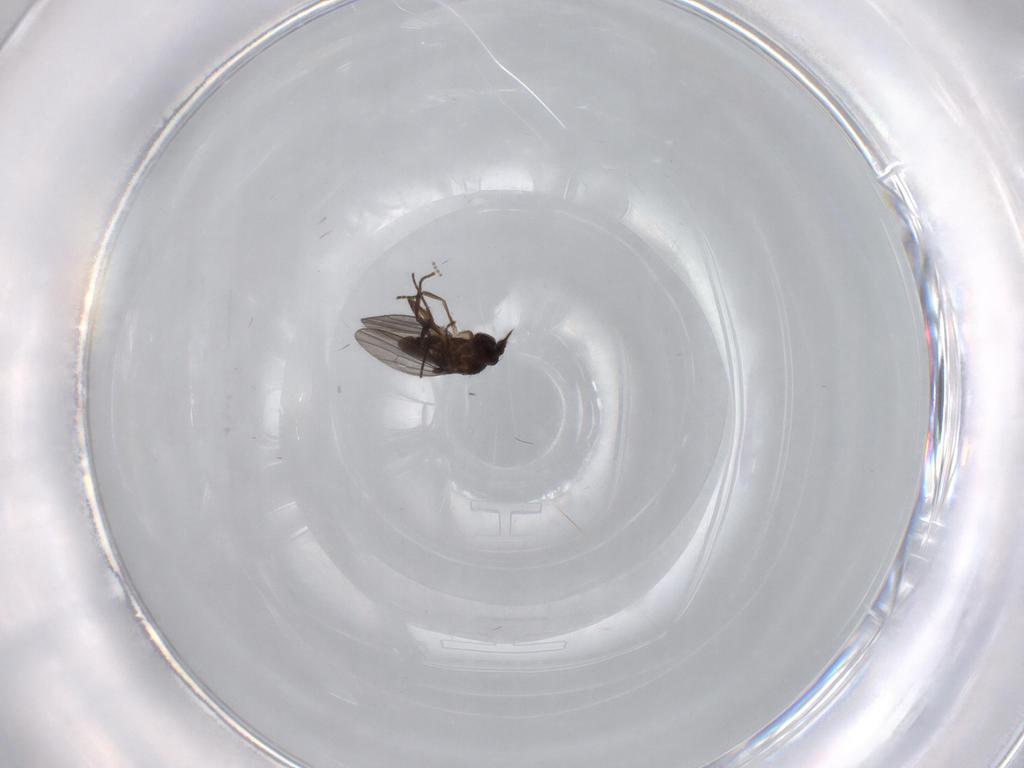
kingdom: Animalia
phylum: Arthropoda
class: Insecta
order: Diptera
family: Dolichopodidae
